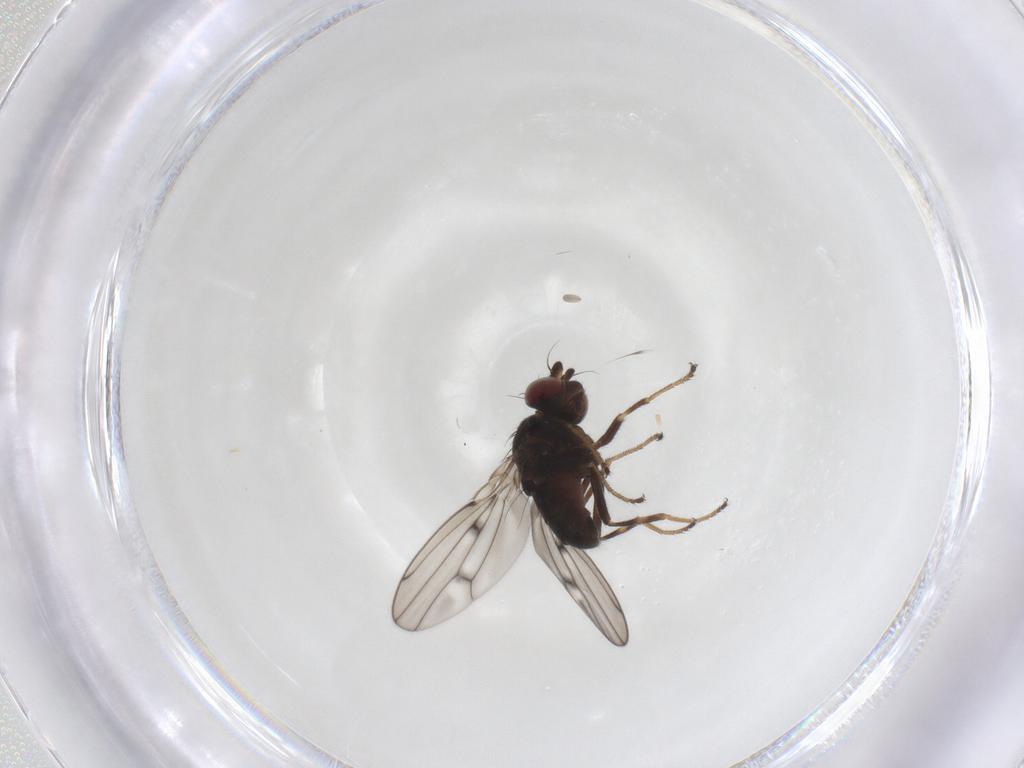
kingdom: Animalia
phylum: Arthropoda
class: Insecta
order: Diptera
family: Ephydridae
